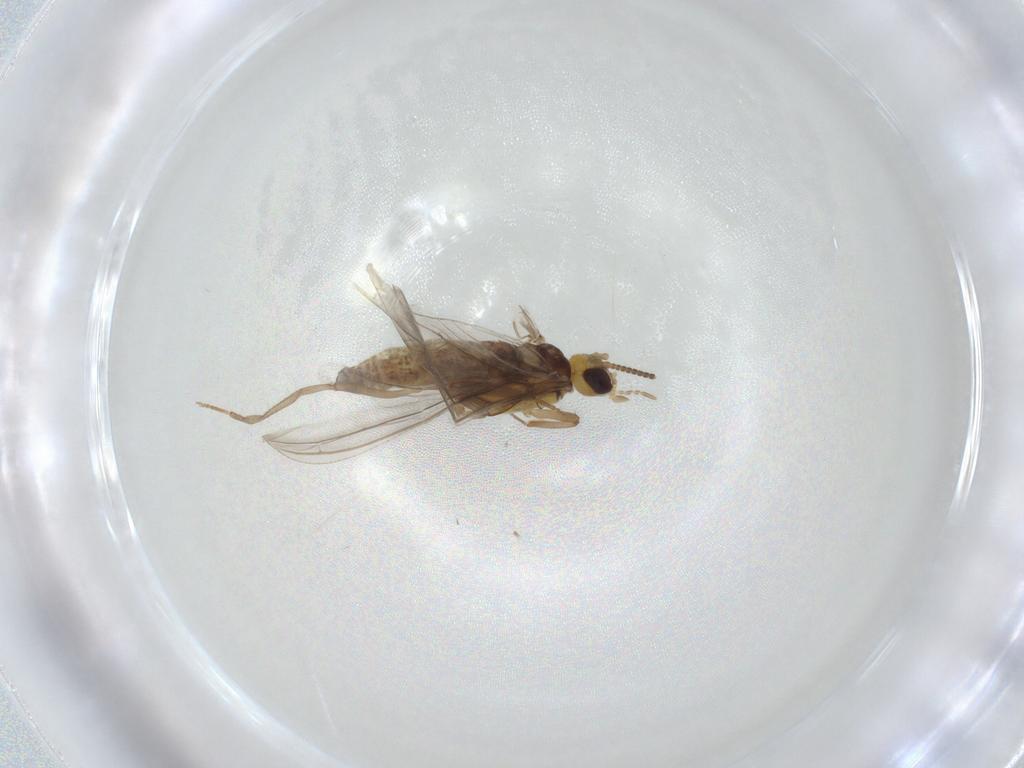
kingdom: Animalia
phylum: Arthropoda
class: Insecta
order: Neuroptera
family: Coniopterygidae
